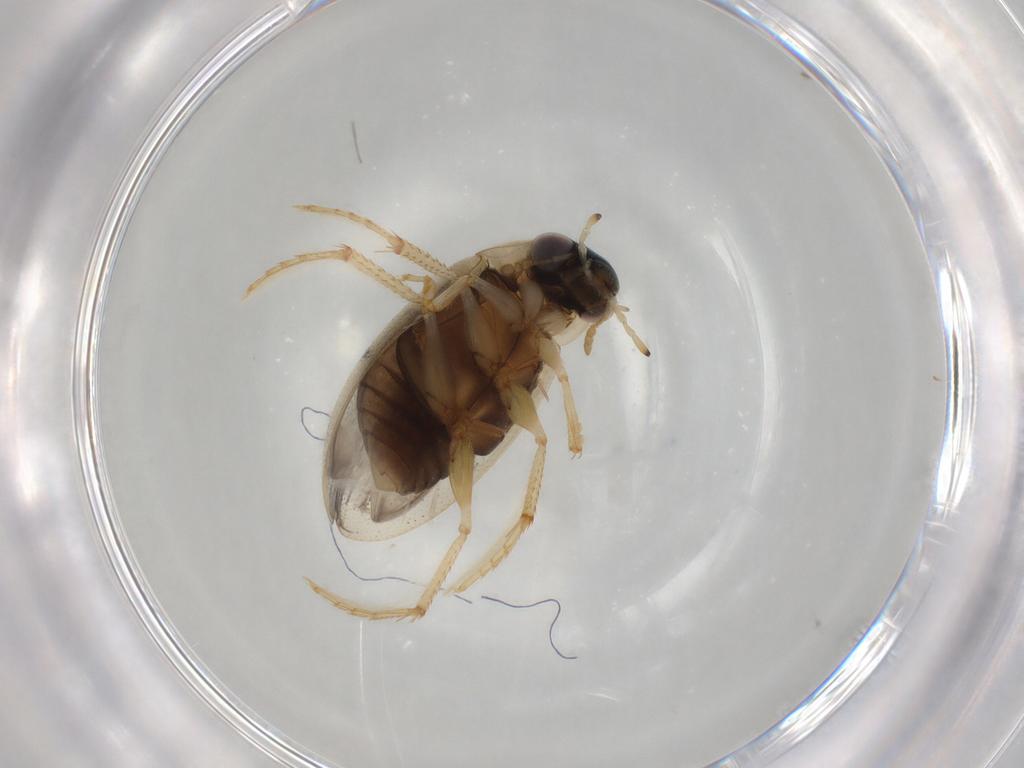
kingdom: Animalia
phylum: Arthropoda
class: Insecta
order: Coleoptera
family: Hydrophilidae
